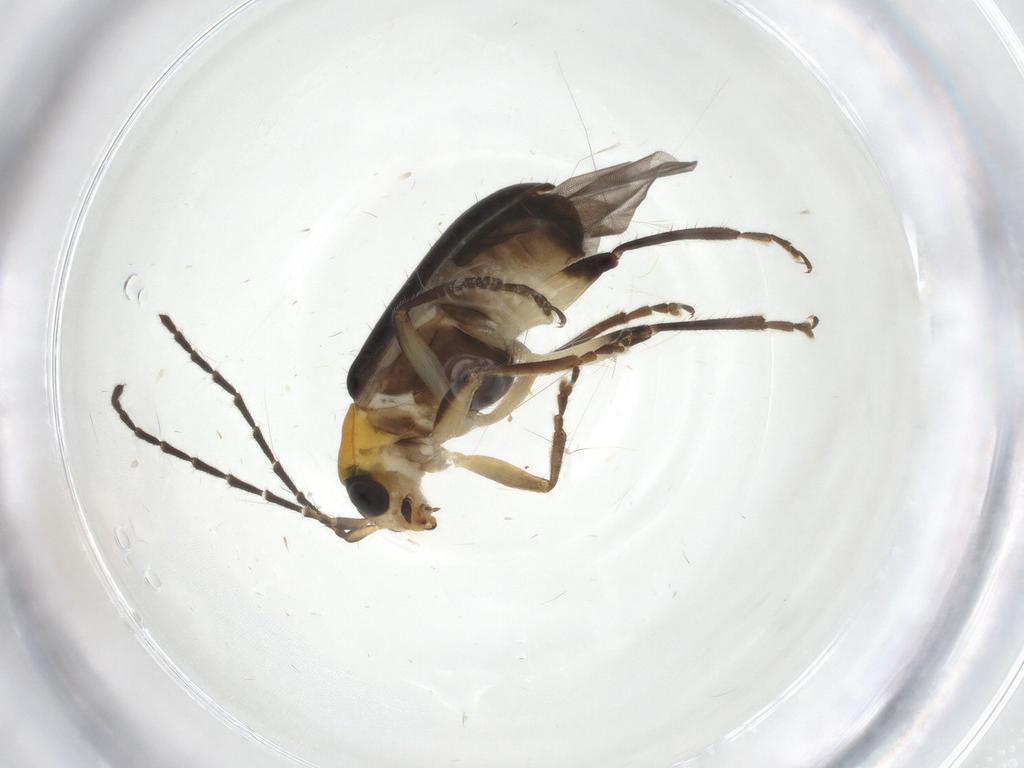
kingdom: Animalia
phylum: Arthropoda
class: Insecta
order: Coleoptera
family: Chrysomelidae
